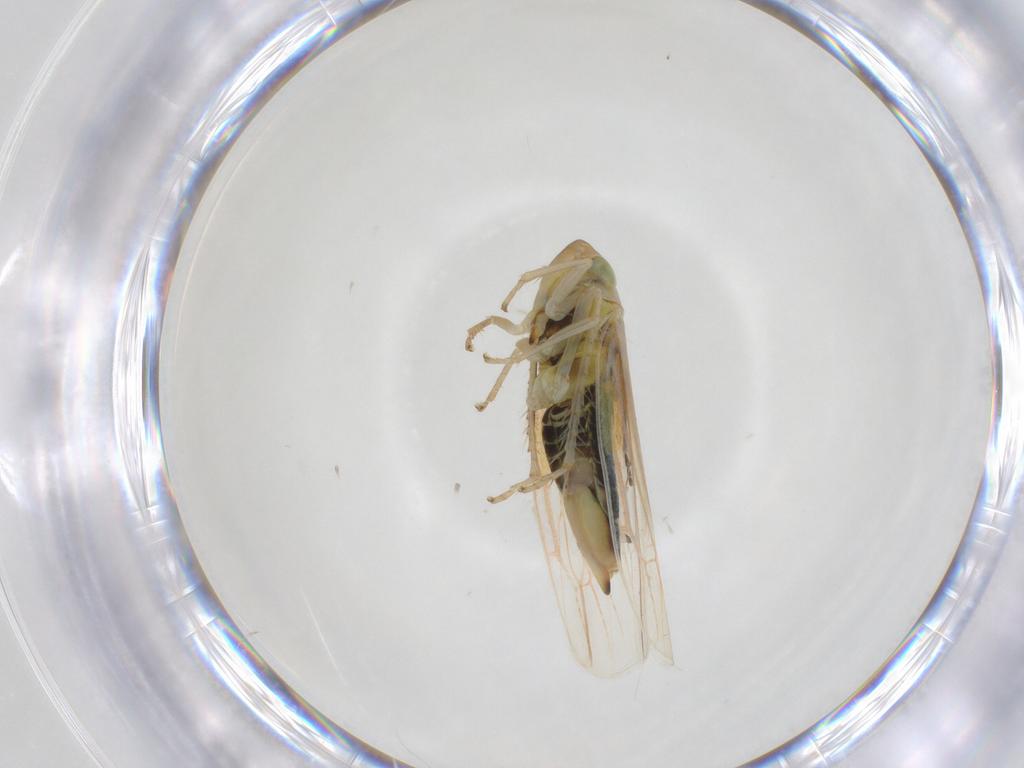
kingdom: Animalia
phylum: Arthropoda
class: Insecta
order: Hemiptera
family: Cicadellidae
